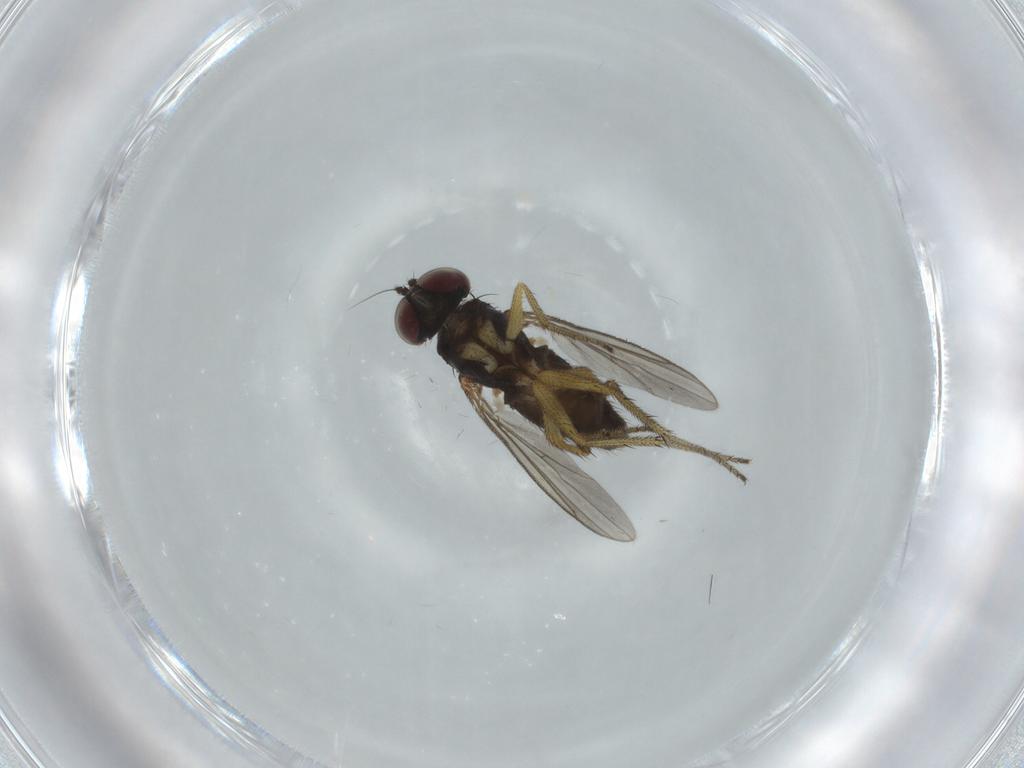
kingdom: Animalia
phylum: Arthropoda
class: Insecta
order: Diptera
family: Dolichopodidae
